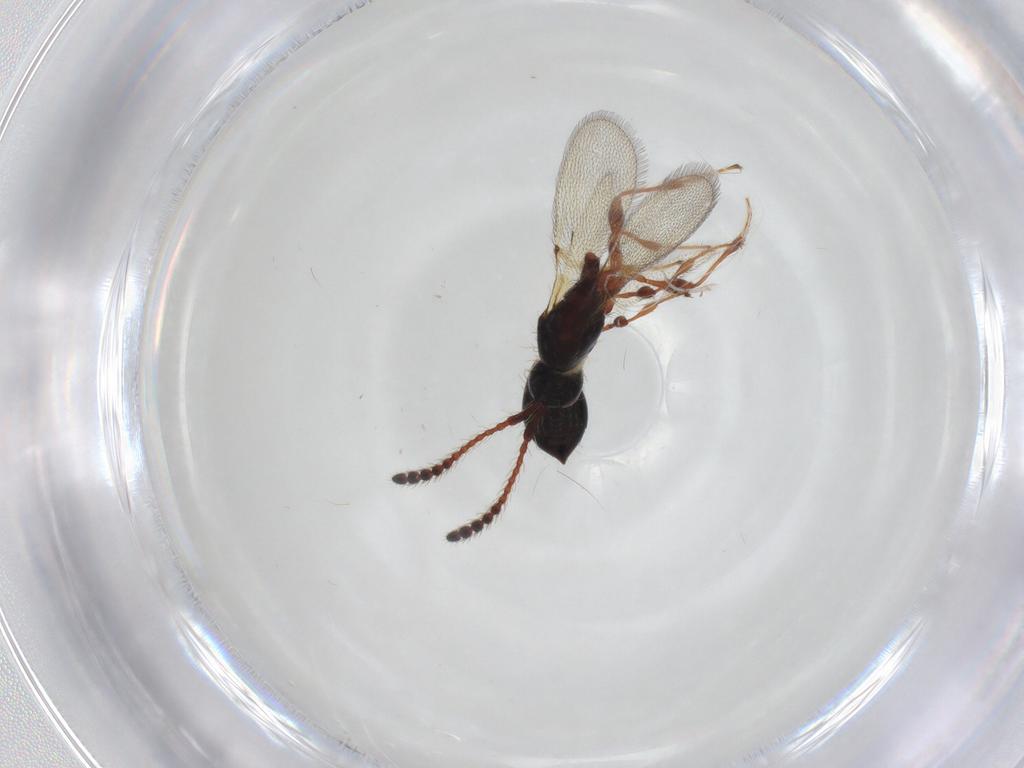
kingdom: Animalia
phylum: Arthropoda
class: Insecta
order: Hymenoptera
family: Diapriidae
